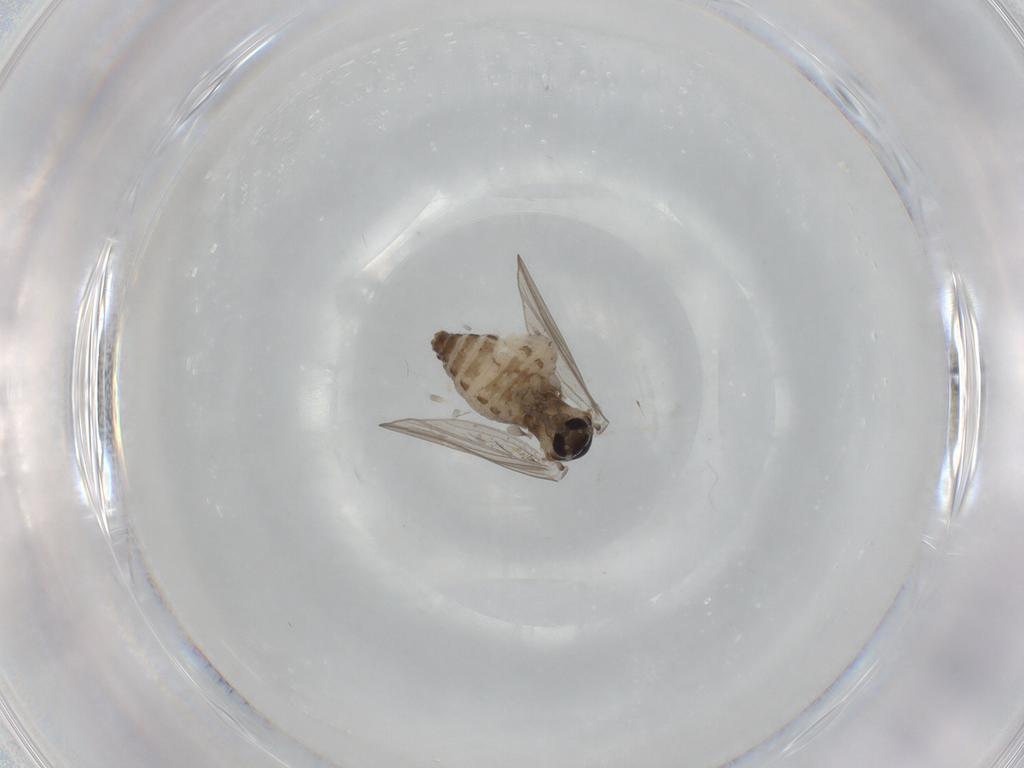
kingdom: Animalia
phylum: Arthropoda
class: Insecta
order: Diptera
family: Psychodidae
